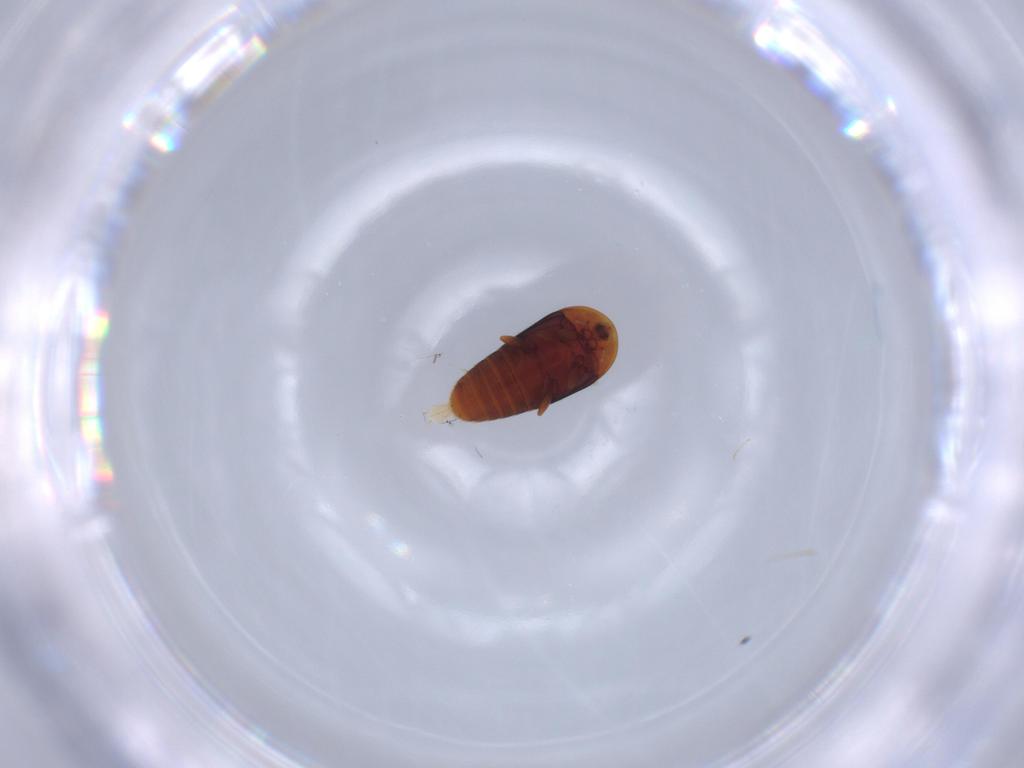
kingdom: Animalia
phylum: Arthropoda
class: Insecta
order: Coleoptera
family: Corylophidae
